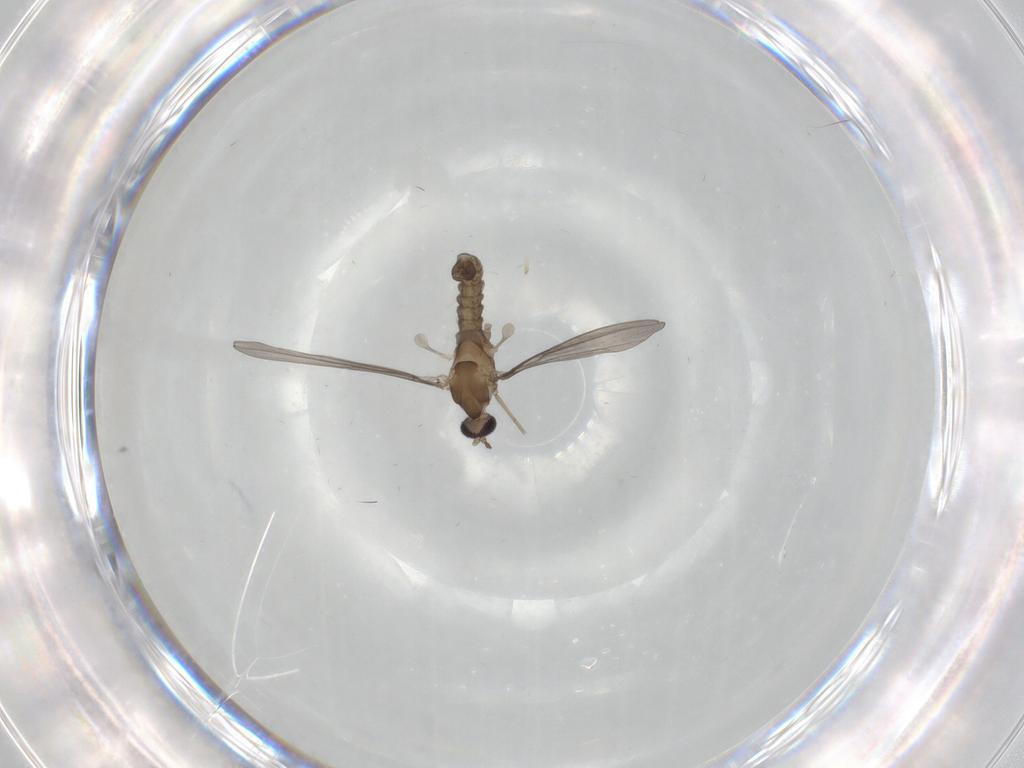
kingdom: Animalia
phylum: Arthropoda
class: Insecta
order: Diptera
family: Cecidomyiidae
